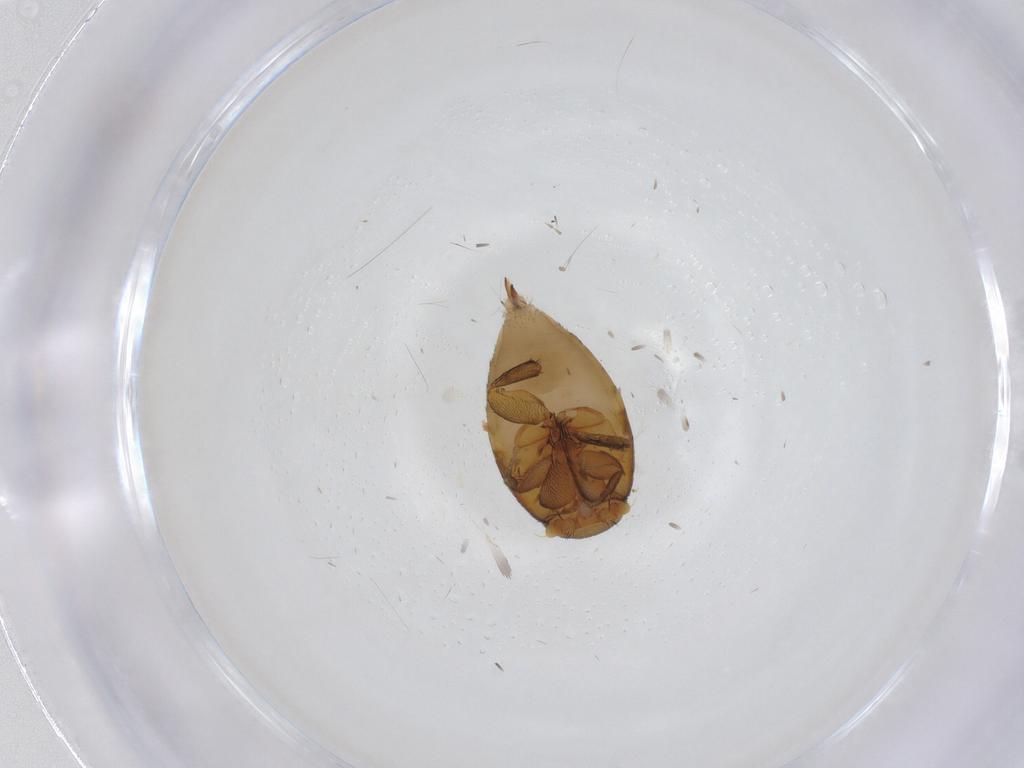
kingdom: Animalia
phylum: Arthropoda
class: Insecta
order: Diptera
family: Phoridae
